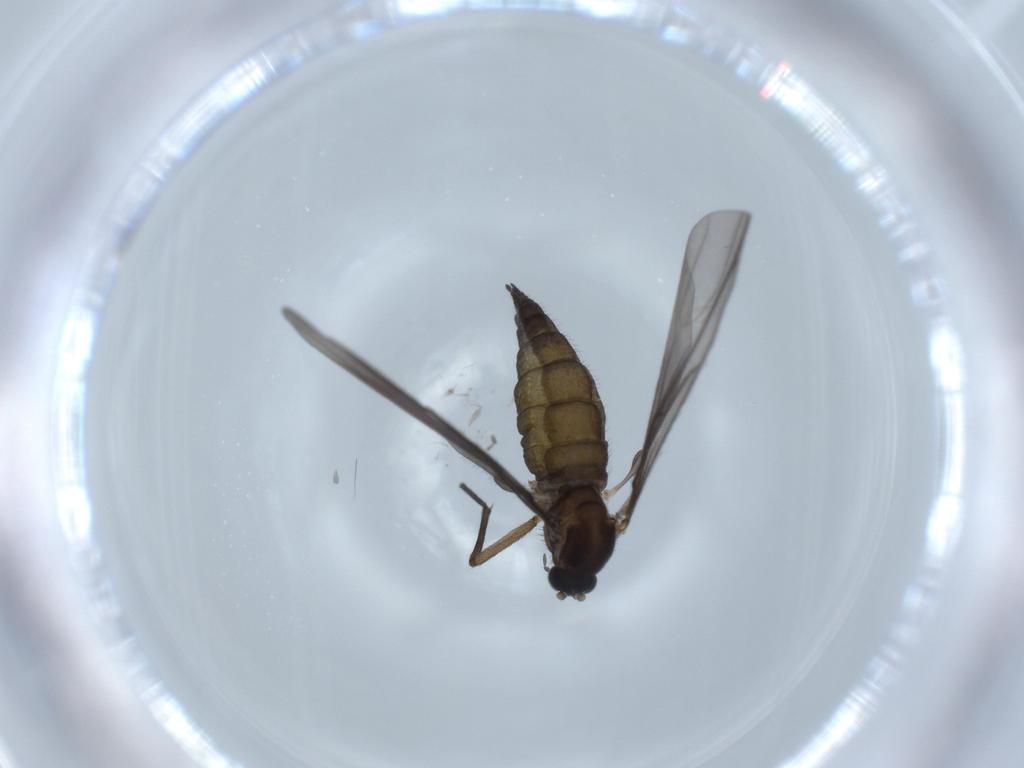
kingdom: Animalia
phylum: Arthropoda
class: Insecta
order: Diptera
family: Sciaridae
